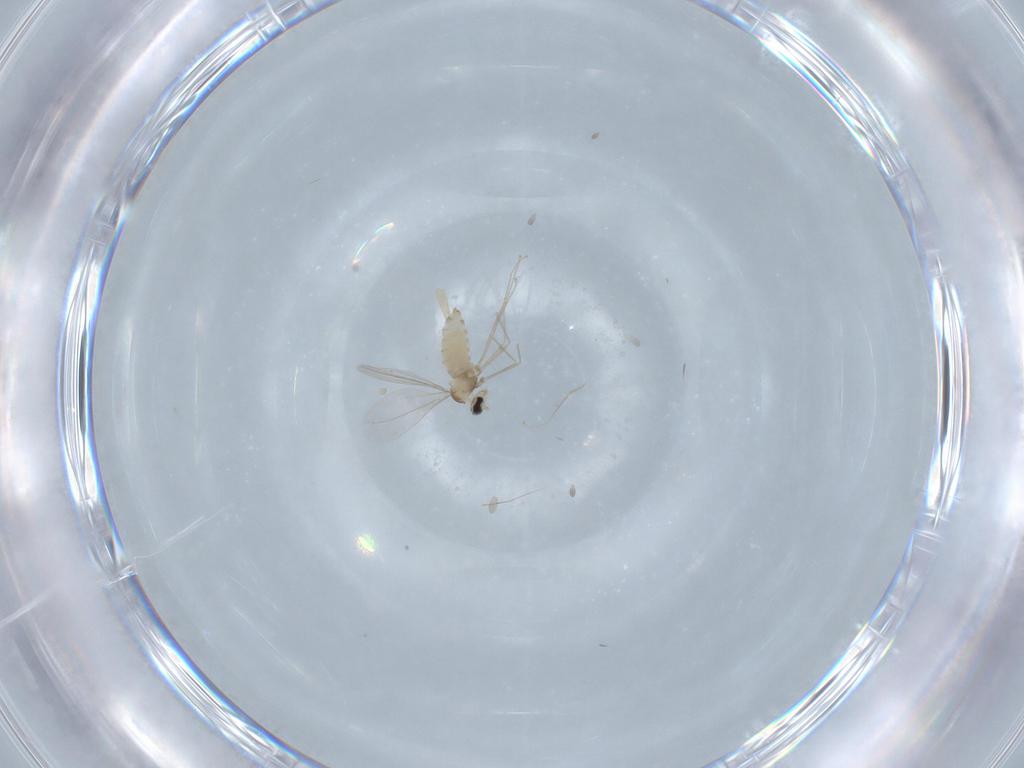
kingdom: Animalia
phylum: Arthropoda
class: Insecta
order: Diptera
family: Cecidomyiidae
